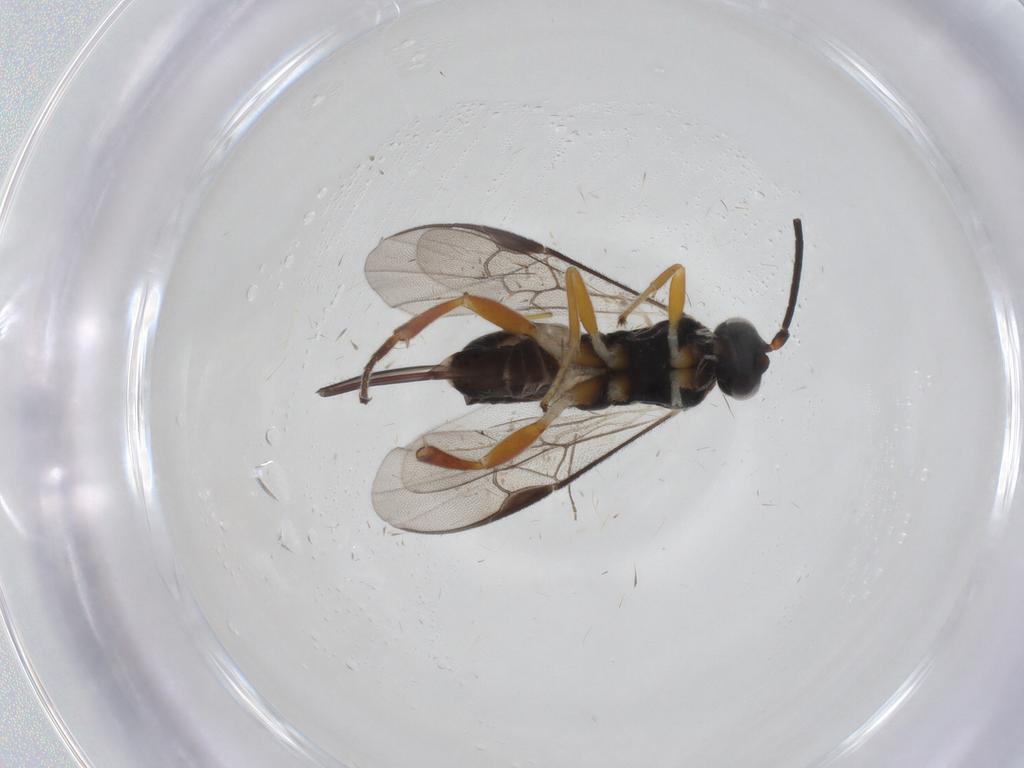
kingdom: Animalia
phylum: Arthropoda
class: Insecta
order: Hymenoptera
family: Braconidae
